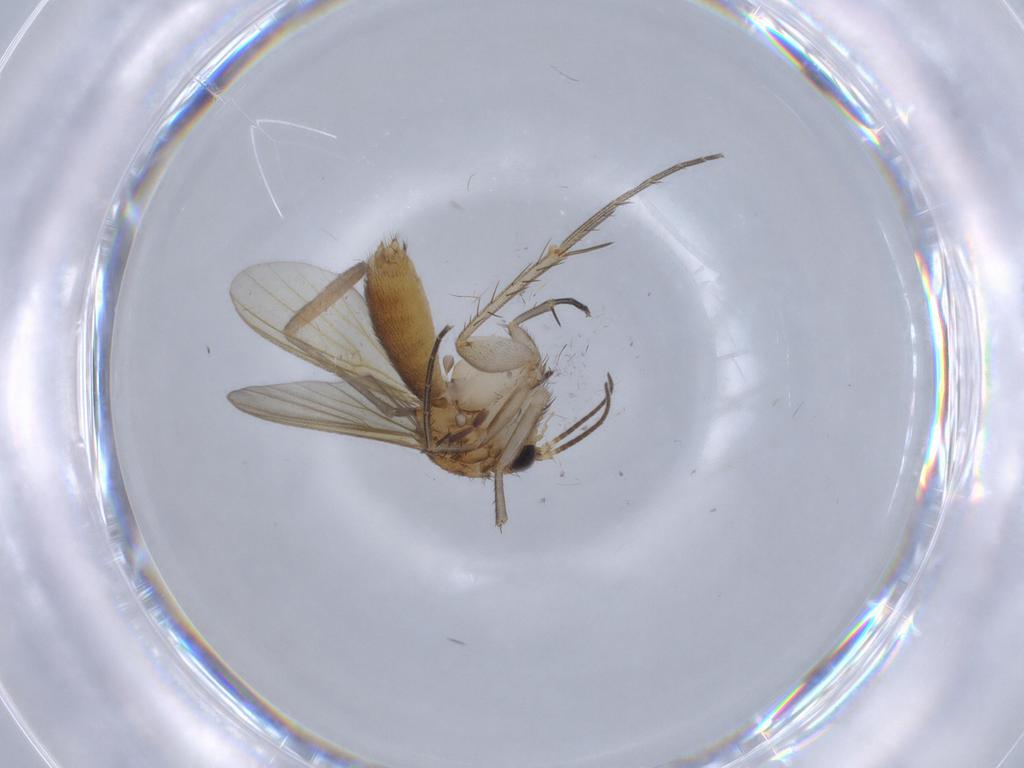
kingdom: Animalia
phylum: Arthropoda
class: Insecta
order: Diptera
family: Mycetophilidae
